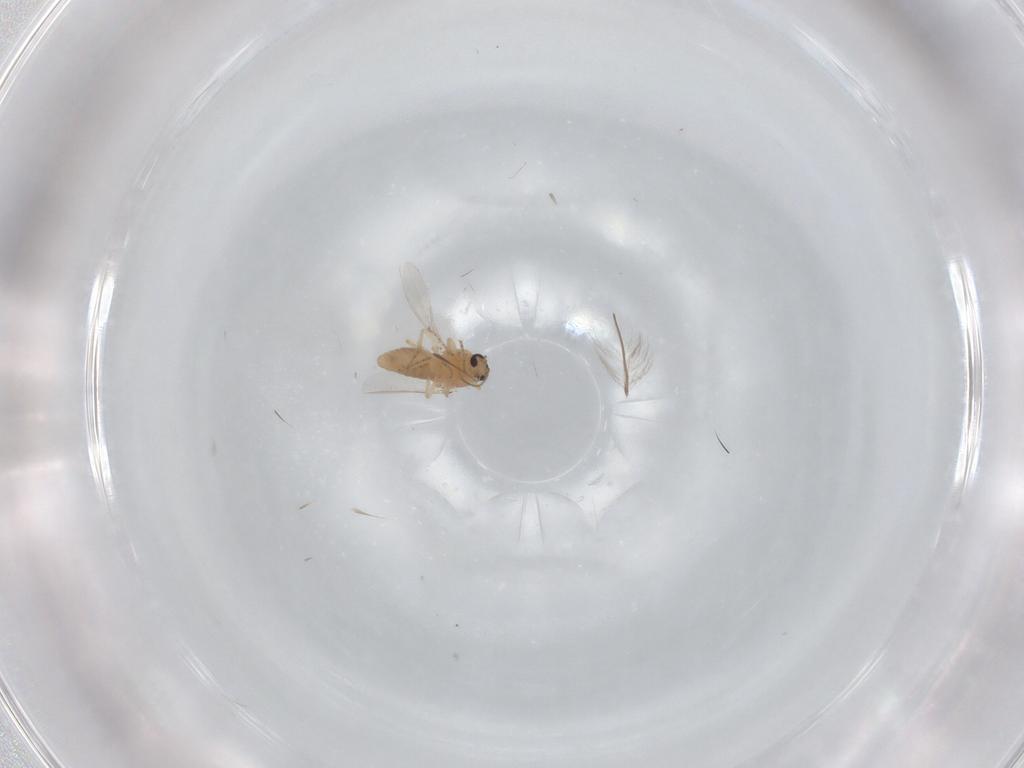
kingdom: Animalia
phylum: Arthropoda
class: Insecta
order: Diptera
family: Ceratopogonidae
